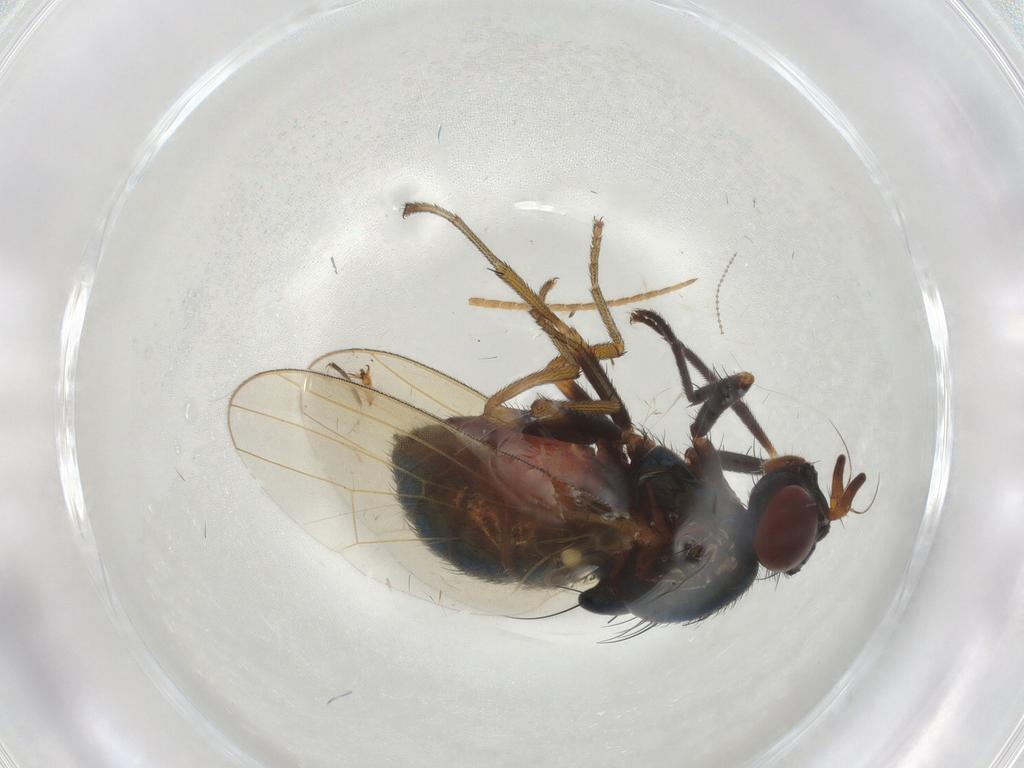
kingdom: Animalia
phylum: Arthropoda
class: Insecta
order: Diptera
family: Lauxaniidae
